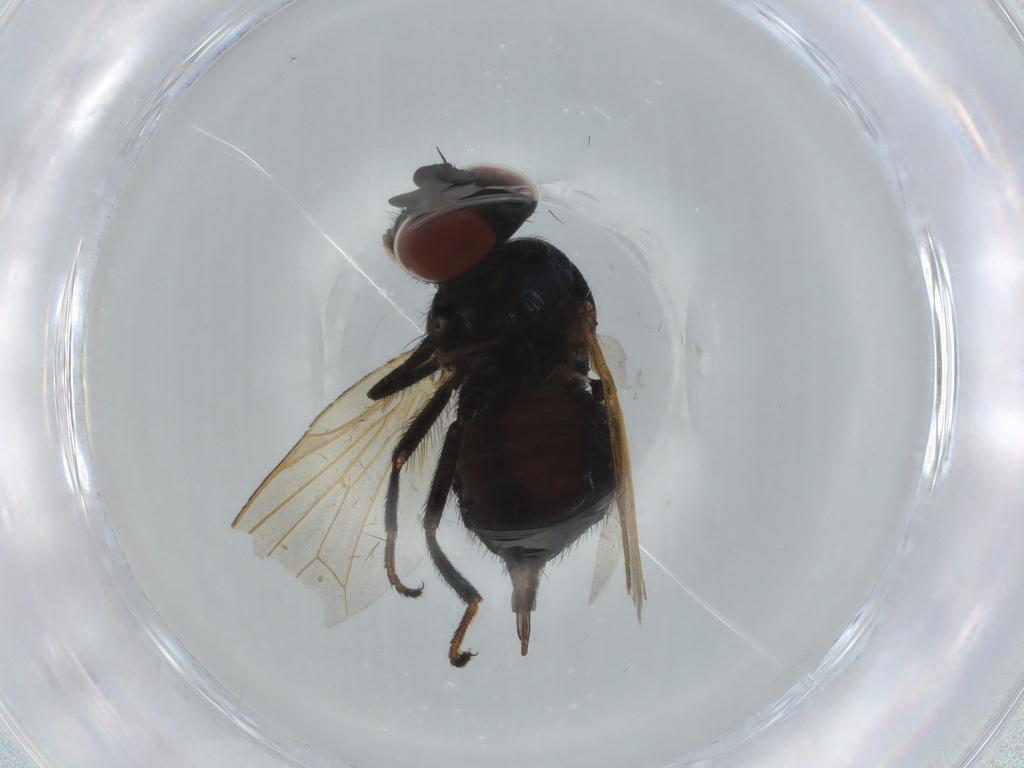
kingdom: Animalia
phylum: Arthropoda
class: Insecta
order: Diptera
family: Lonchaeidae
